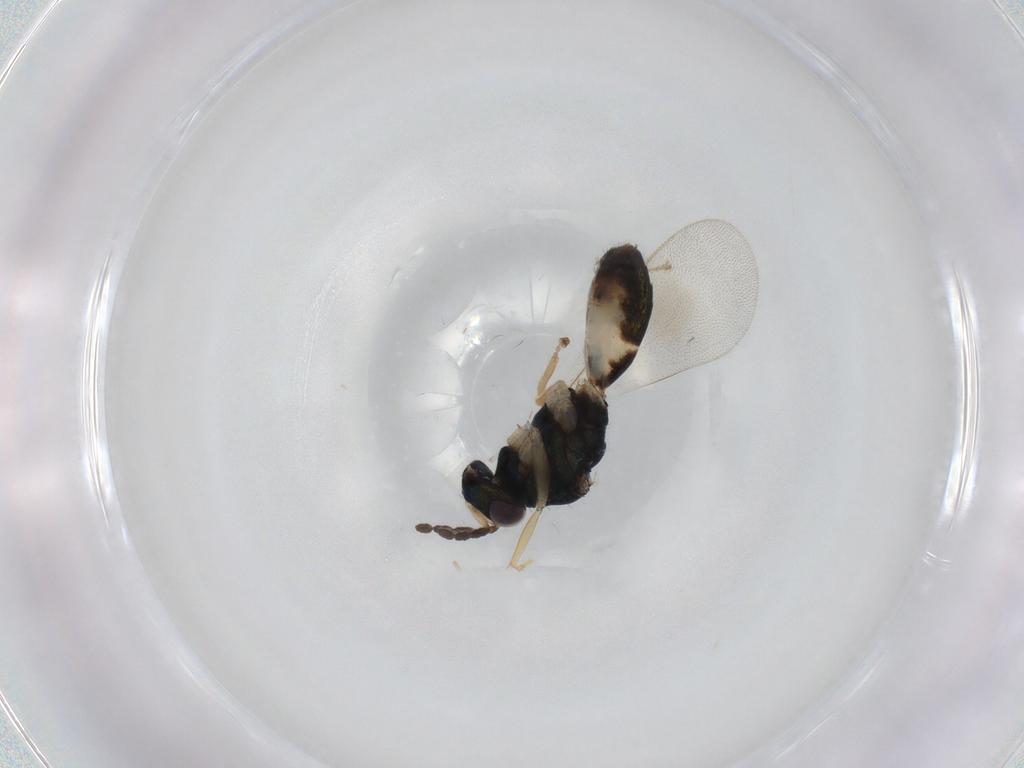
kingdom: Animalia
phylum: Arthropoda
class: Insecta
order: Hymenoptera
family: Eulophidae
